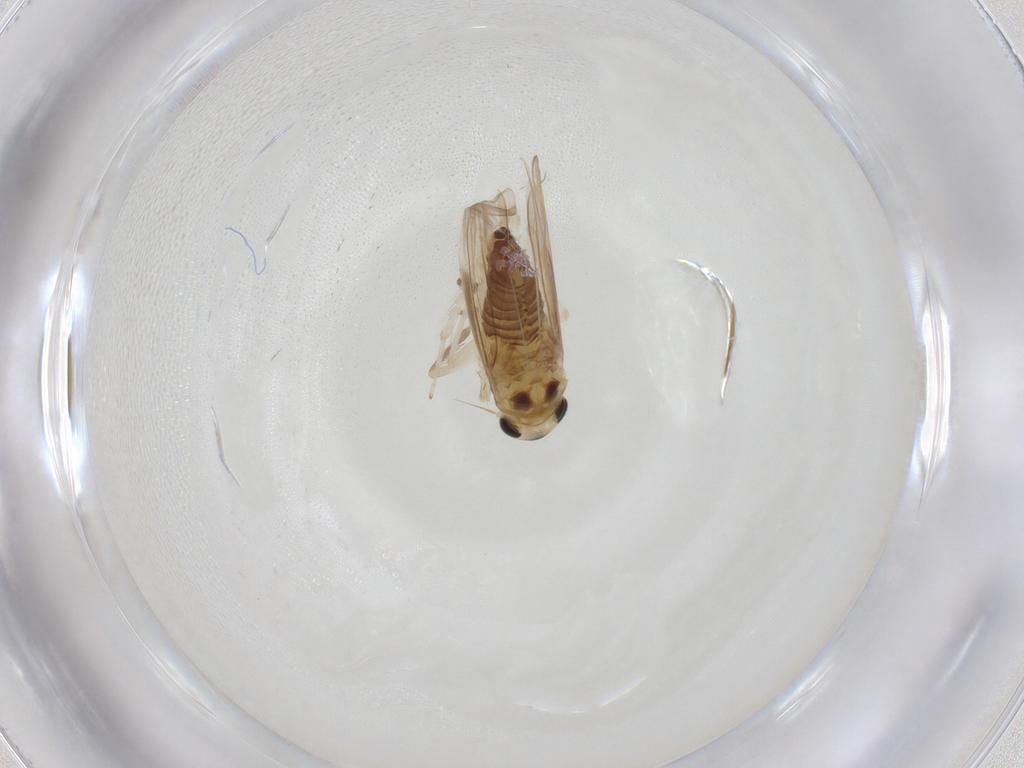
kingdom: Animalia
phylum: Arthropoda
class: Insecta
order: Hemiptera
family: Cicadellidae
